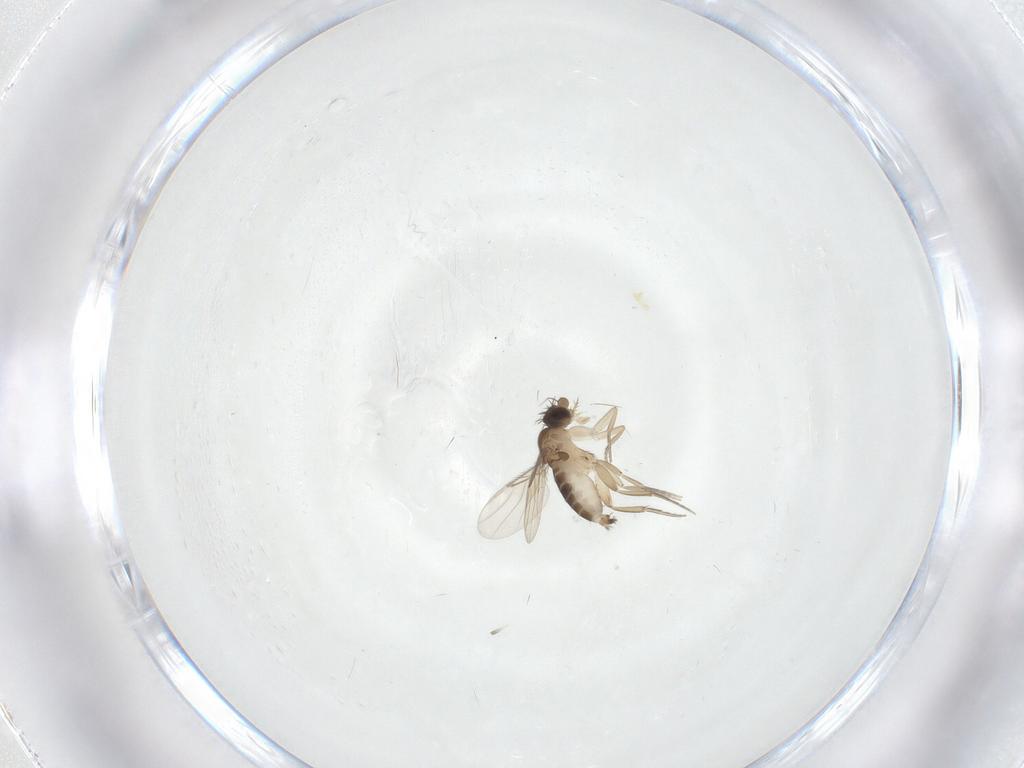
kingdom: Animalia
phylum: Arthropoda
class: Insecta
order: Diptera
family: Phoridae
